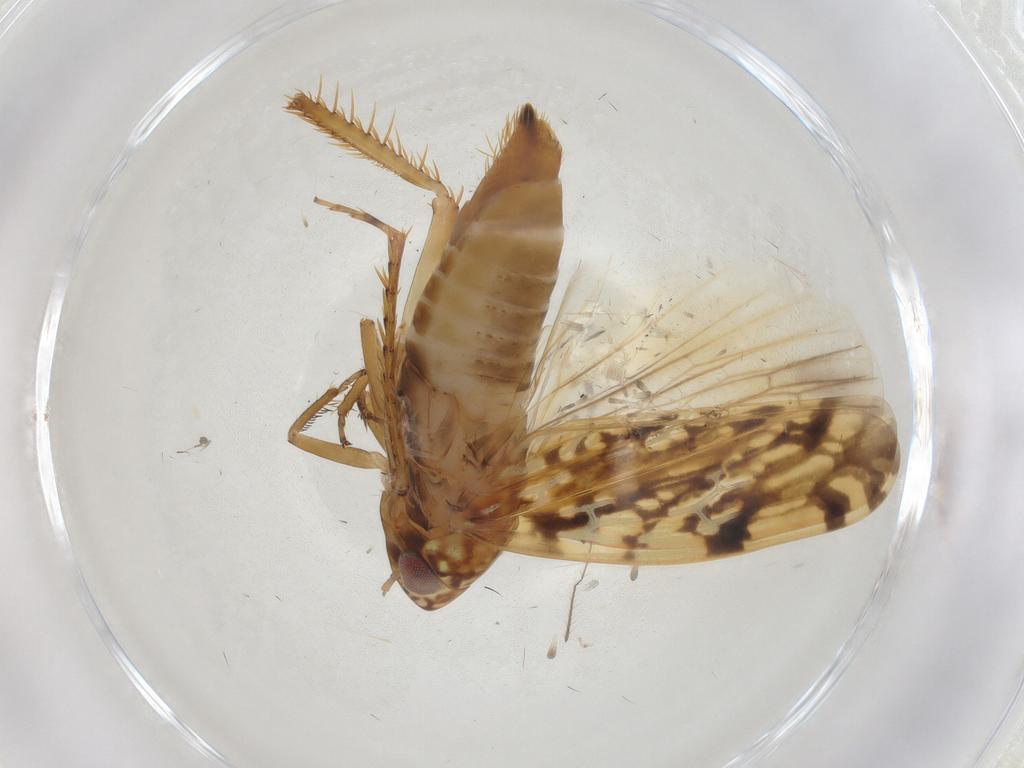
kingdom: Animalia
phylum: Arthropoda
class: Insecta
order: Hemiptera
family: Cicadellidae
